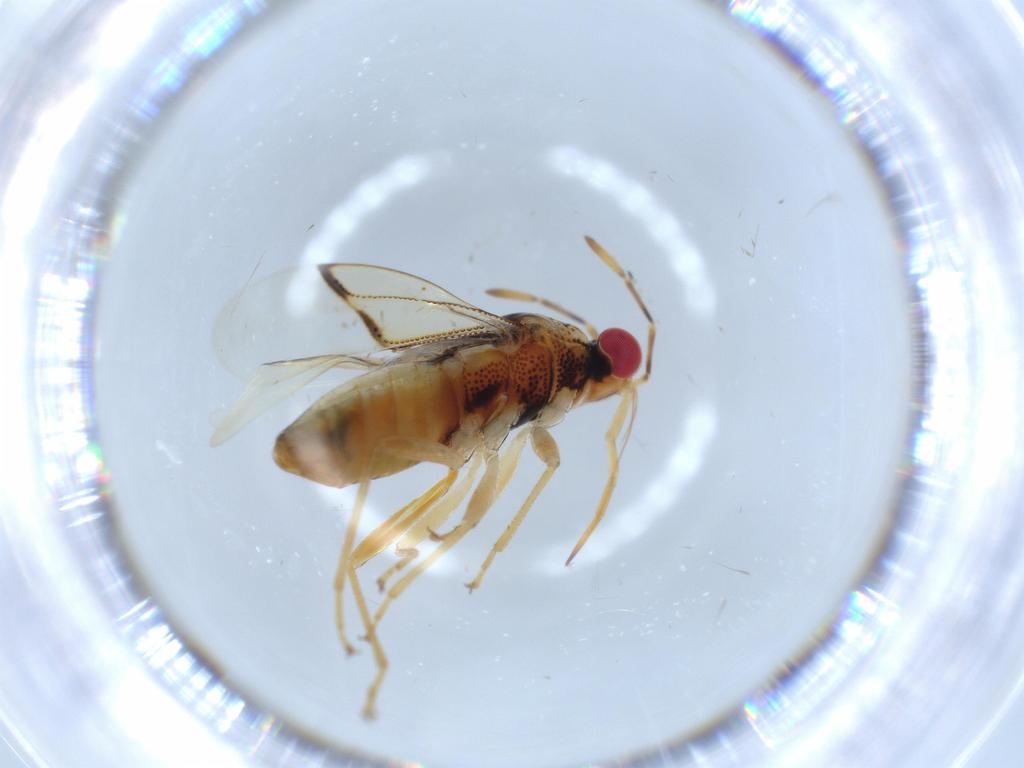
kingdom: Animalia
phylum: Arthropoda
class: Insecta
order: Hemiptera
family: Geocoridae
